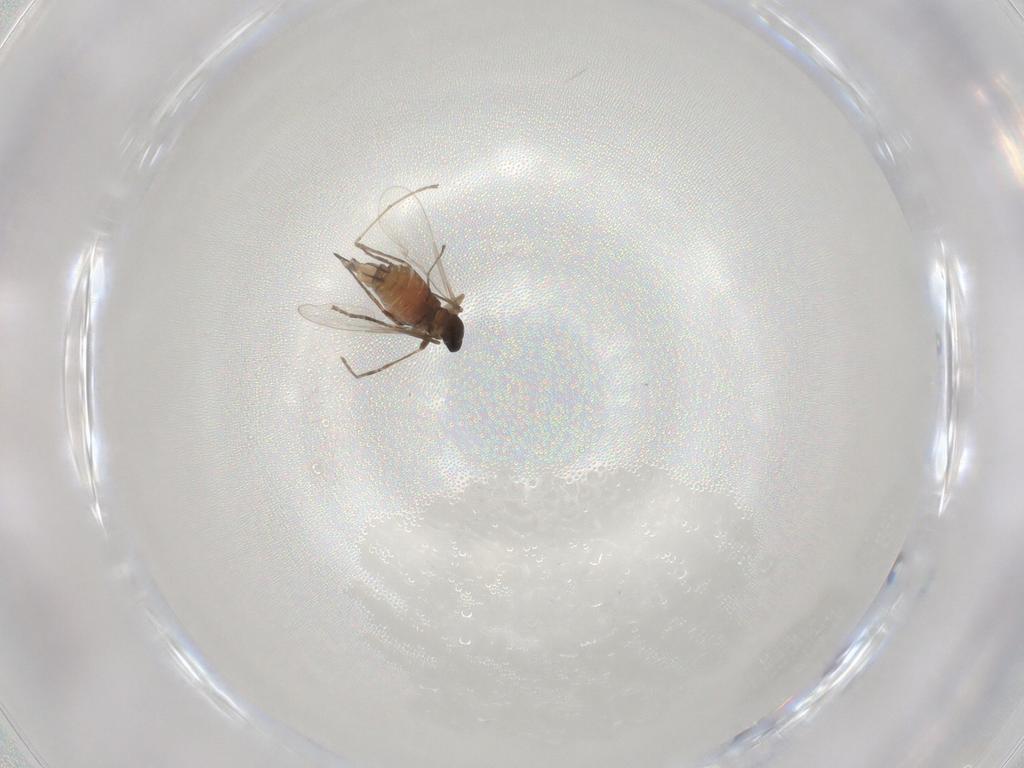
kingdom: Animalia
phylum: Arthropoda
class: Insecta
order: Diptera
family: Cecidomyiidae
